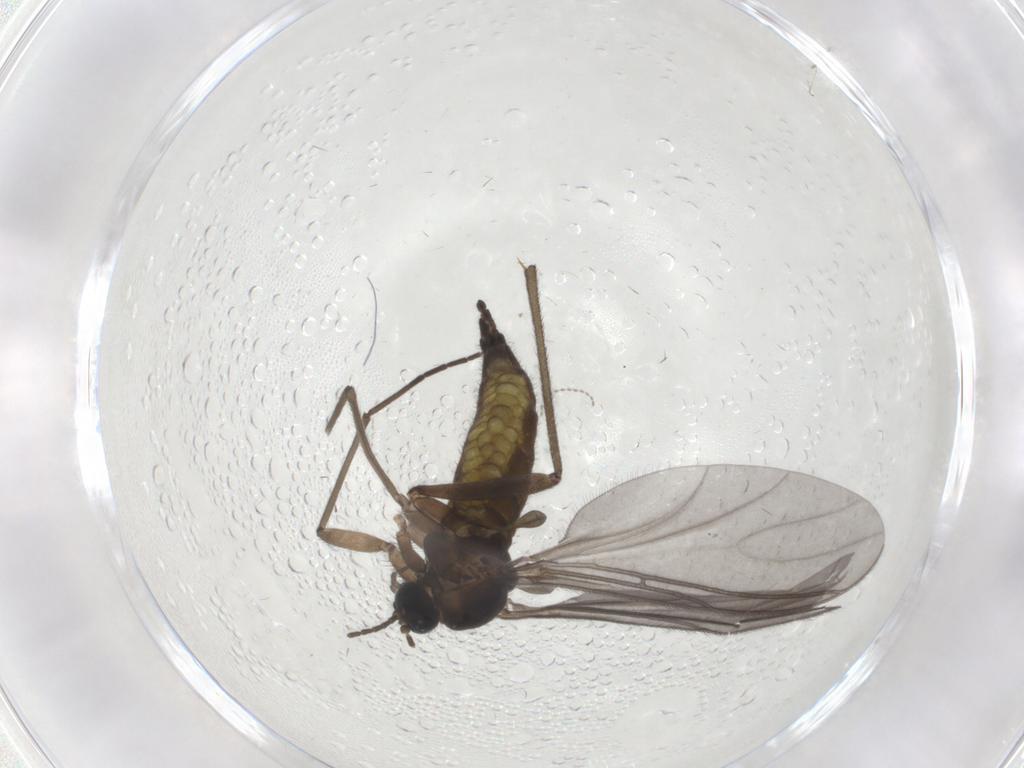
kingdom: Animalia
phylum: Arthropoda
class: Insecta
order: Diptera
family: Sciaridae
